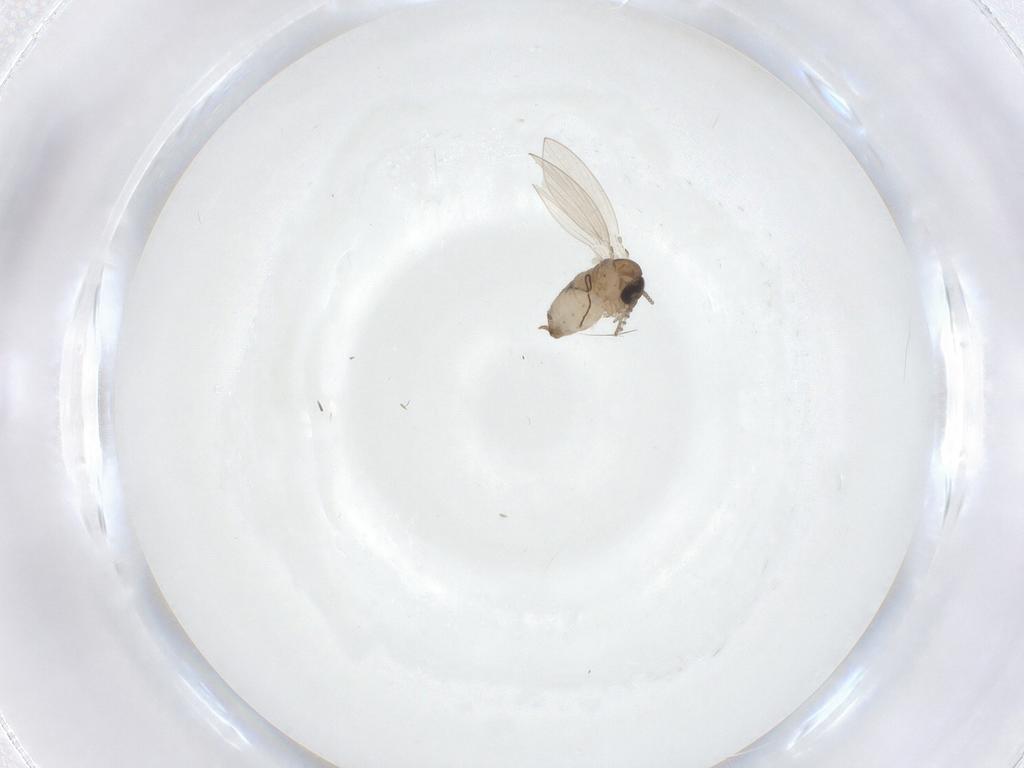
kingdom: Animalia
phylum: Arthropoda
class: Insecta
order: Diptera
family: Psychodidae
